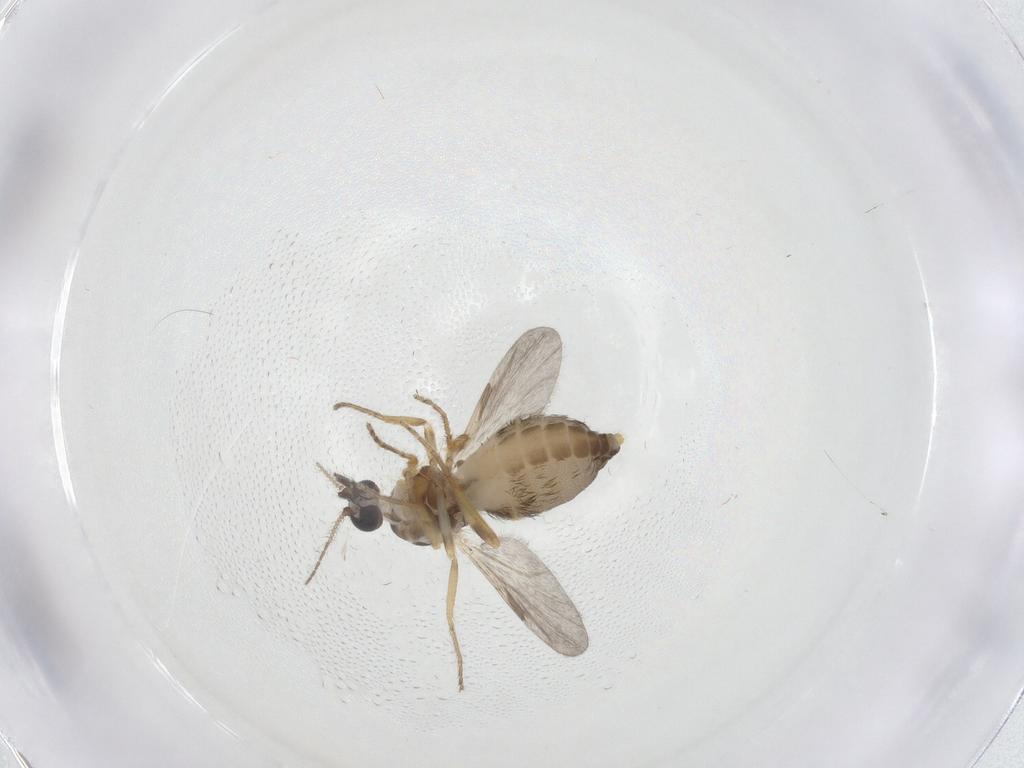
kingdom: Animalia
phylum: Arthropoda
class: Insecta
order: Diptera
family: Ceratopogonidae
